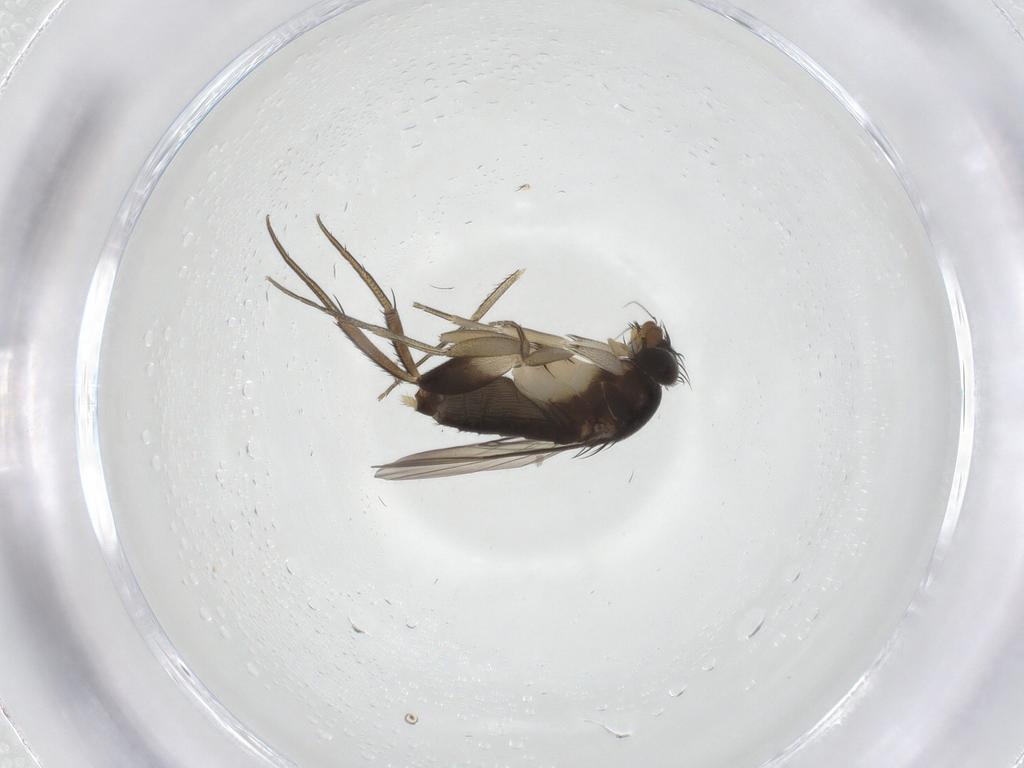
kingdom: Animalia
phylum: Arthropoda
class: Insecta
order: Diptera
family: Phoridae
